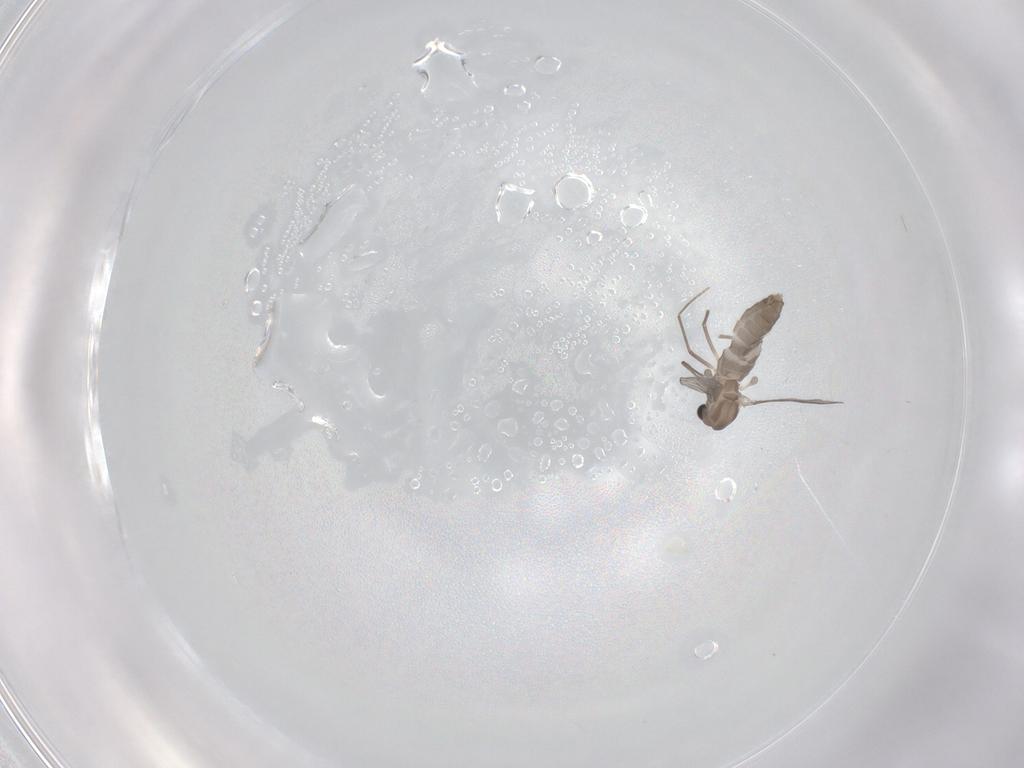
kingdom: Animalia
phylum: Arthropoda
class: Insecta
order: Diptera
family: Chironomidae
